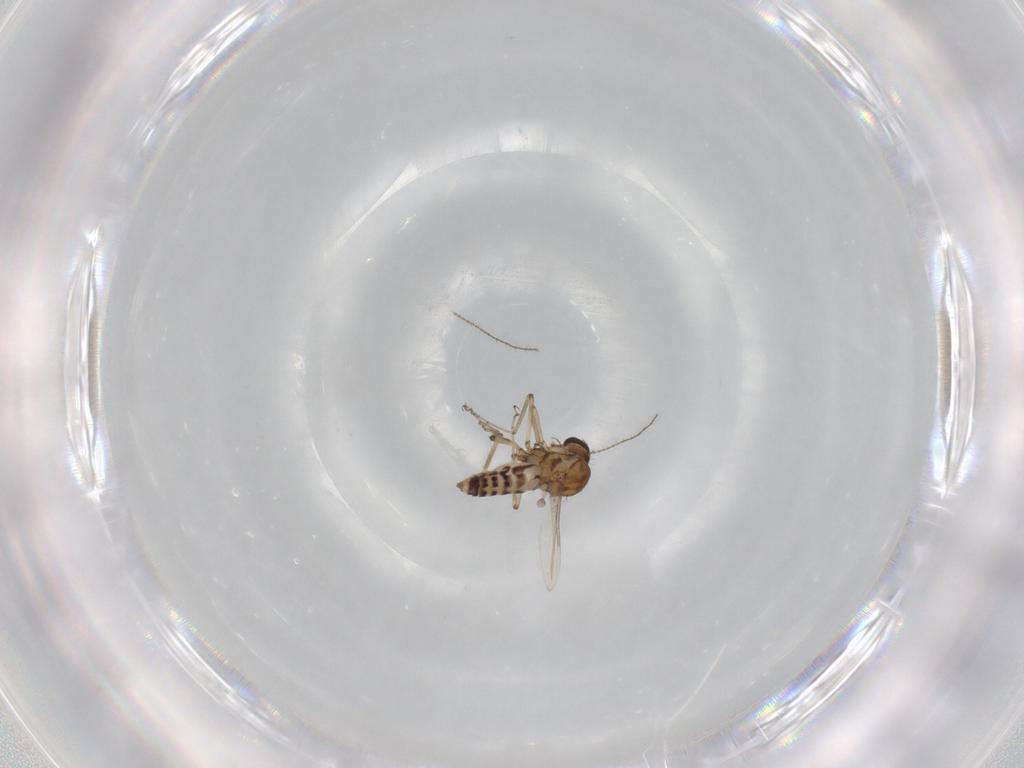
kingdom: Animalia
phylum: Arthropoda
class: Insecta
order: Diptera
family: Ceratopogonidae
